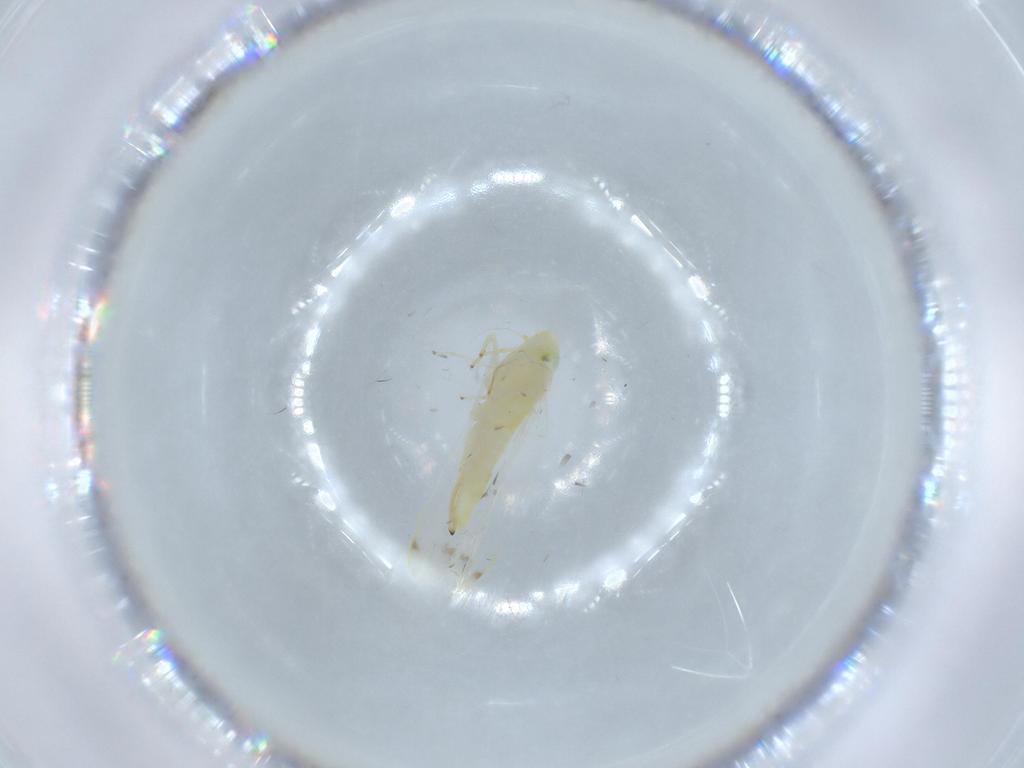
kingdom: Animalia
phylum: Arthropoda
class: Insecta
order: Hemiptera
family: Cicadellidae
